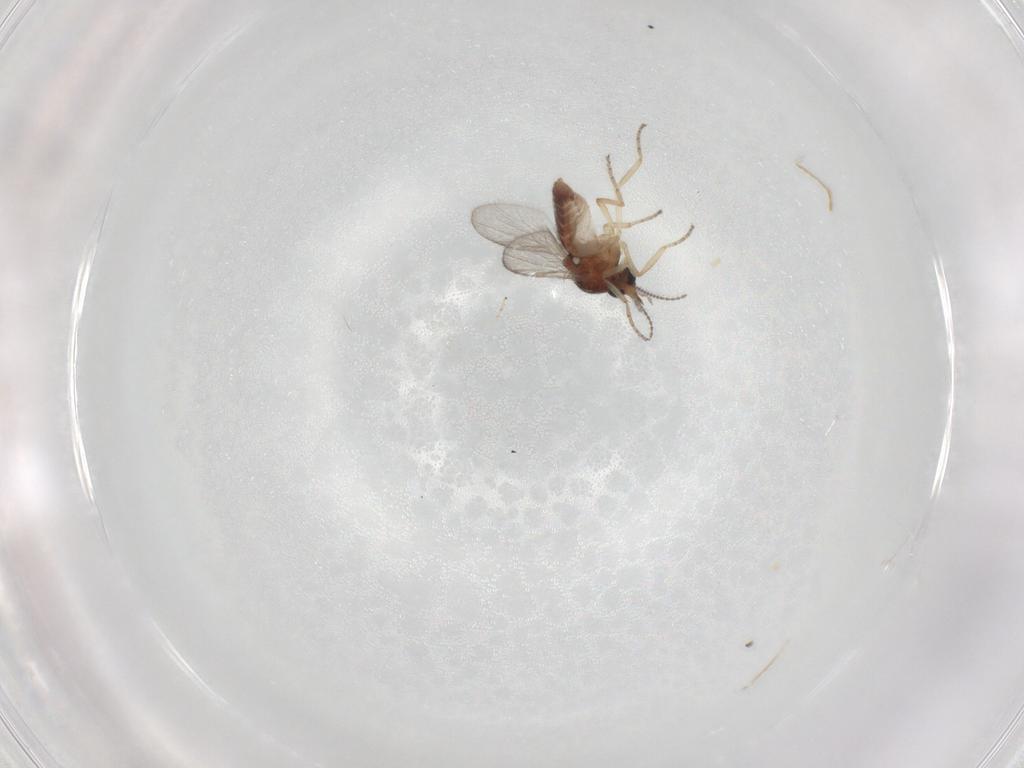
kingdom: Animalia
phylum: Arthropoda
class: Insecta
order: Diptera
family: Ceratopogonidae
